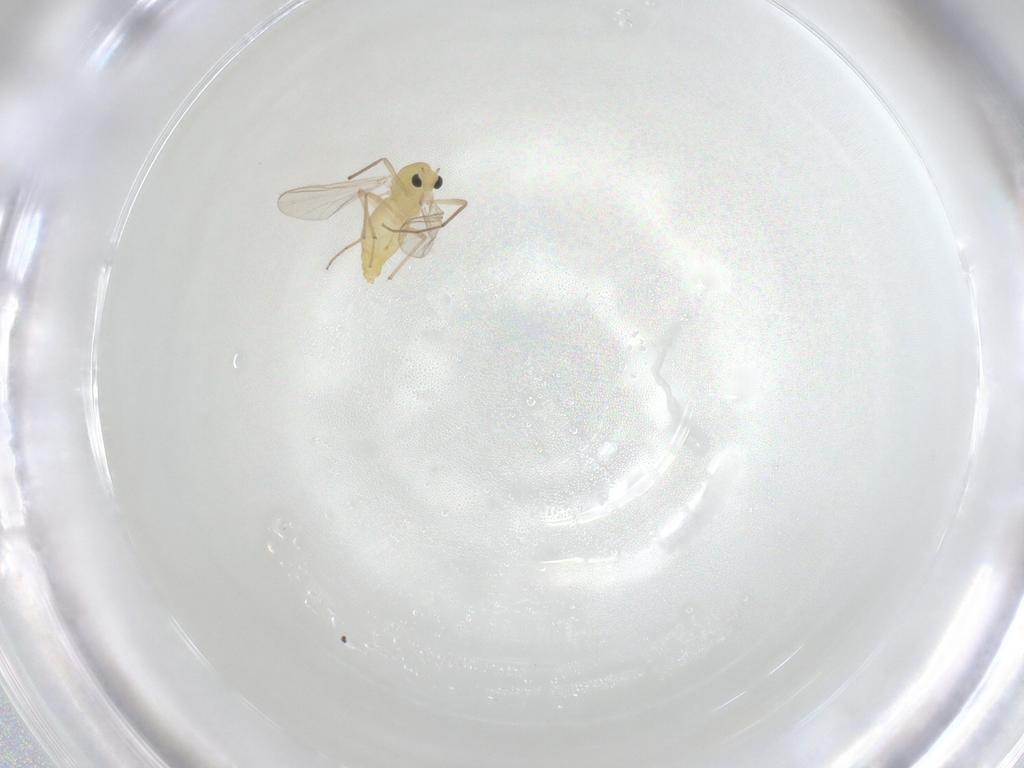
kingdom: Animalia
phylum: Arthropoda
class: Insecta
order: Diptera
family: Chironomidae
